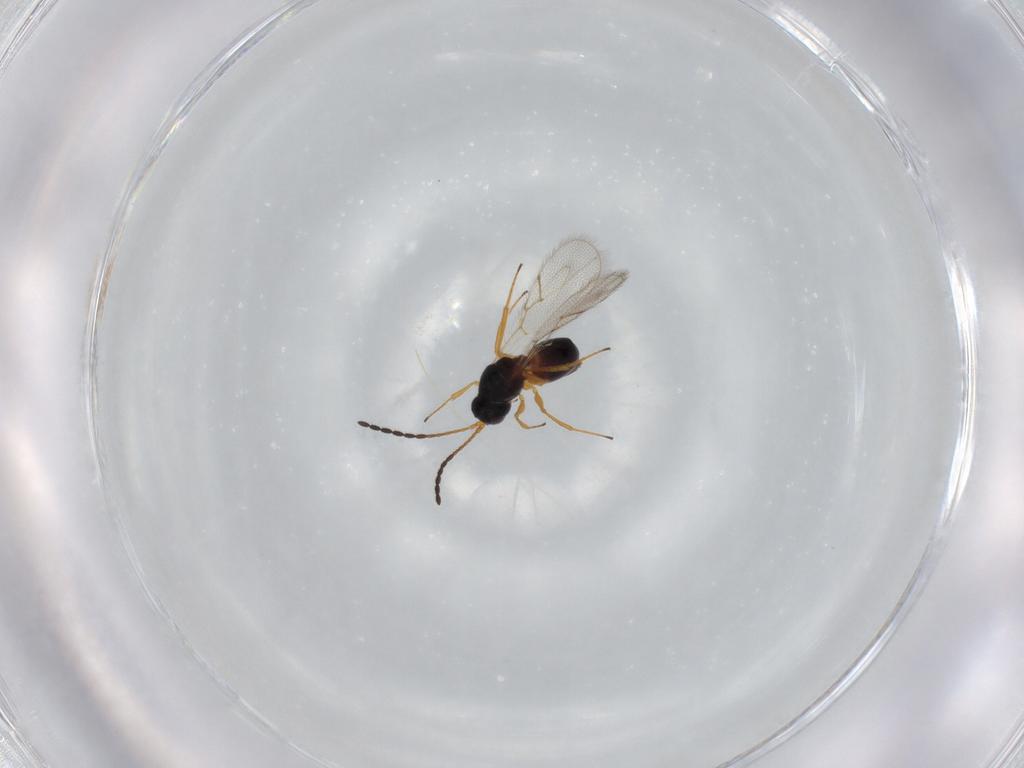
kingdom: Animalia
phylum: Arthropoda
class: Insecta
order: Hymenoptera
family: Figitidae
